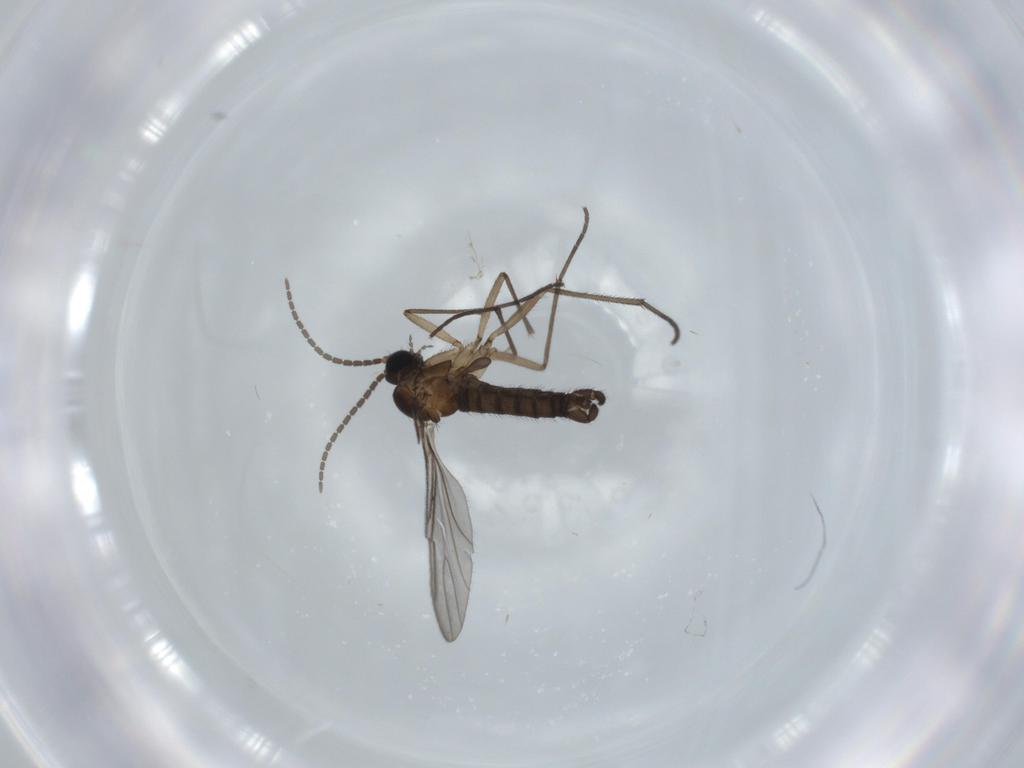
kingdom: Animalia
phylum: Arthropoda
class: Insecta
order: Diptera
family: Sciaridae
